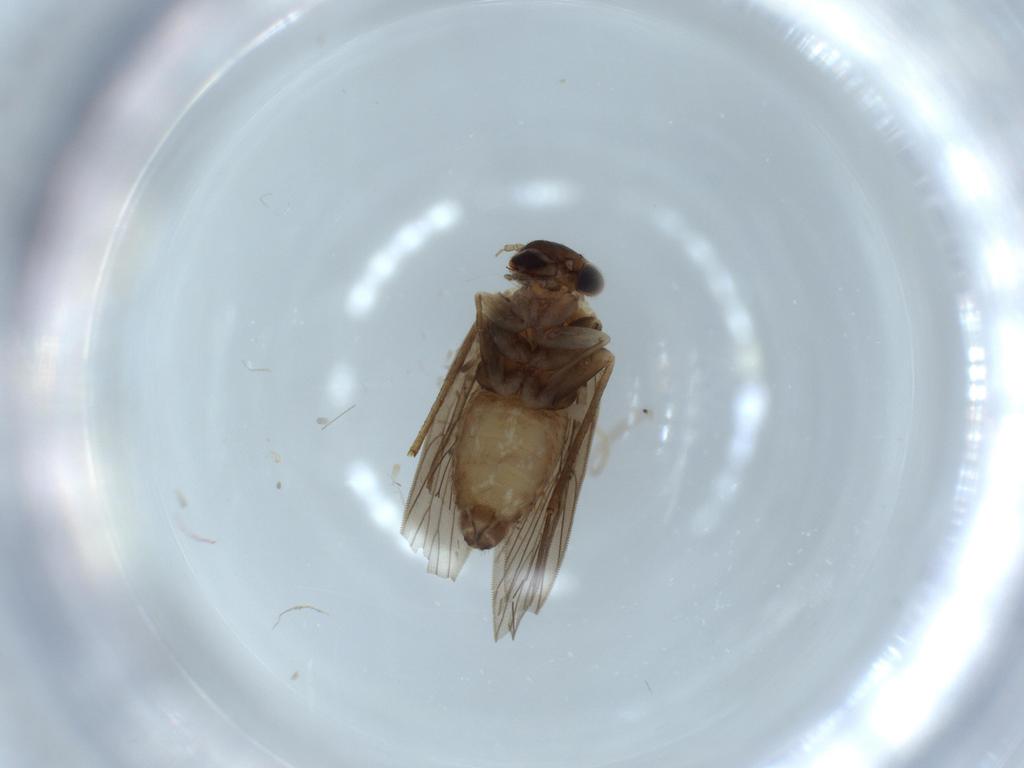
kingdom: Animalia
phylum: Arthropoda
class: Insecta
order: Psocodea
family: Lepidopsocidae
